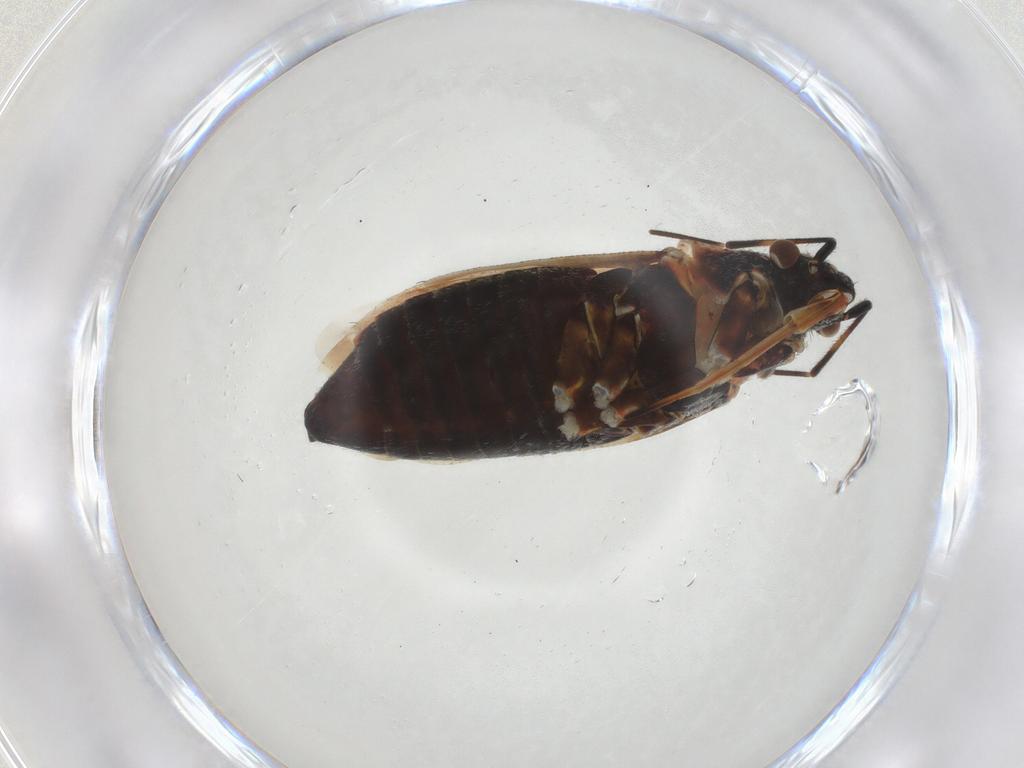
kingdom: Animalia
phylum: Arthropoda
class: Insecta
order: Hemiptera
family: Miridae
